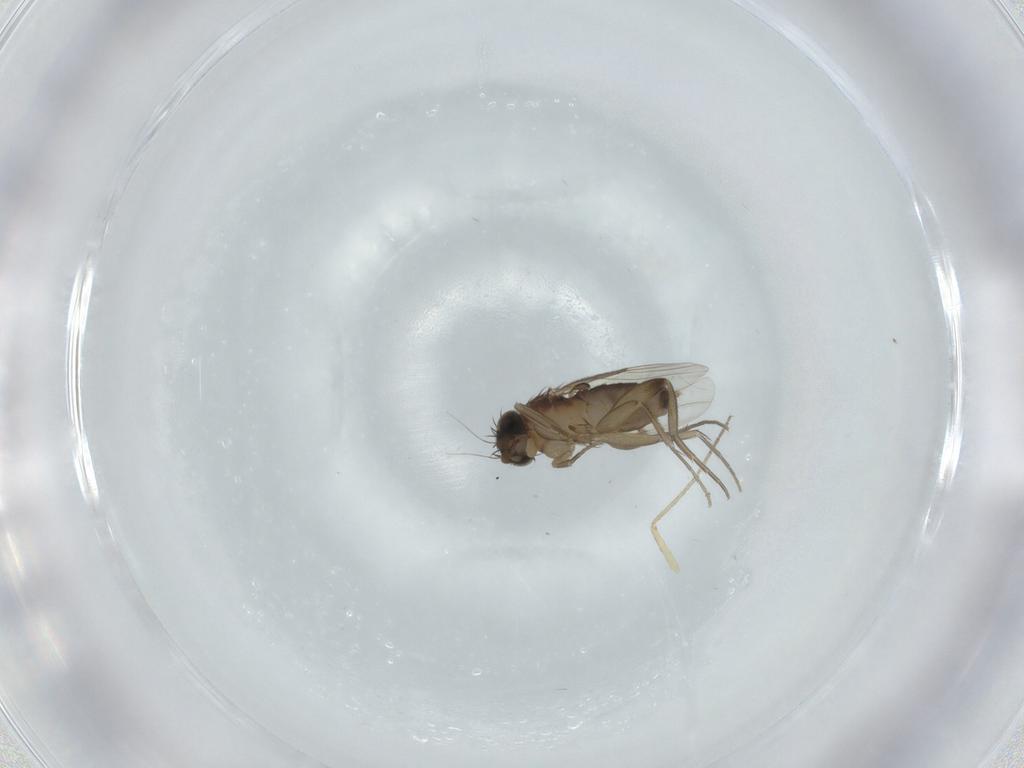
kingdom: Animalia
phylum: Arthropoda
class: Insecta
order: Diptera
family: Phoridae
